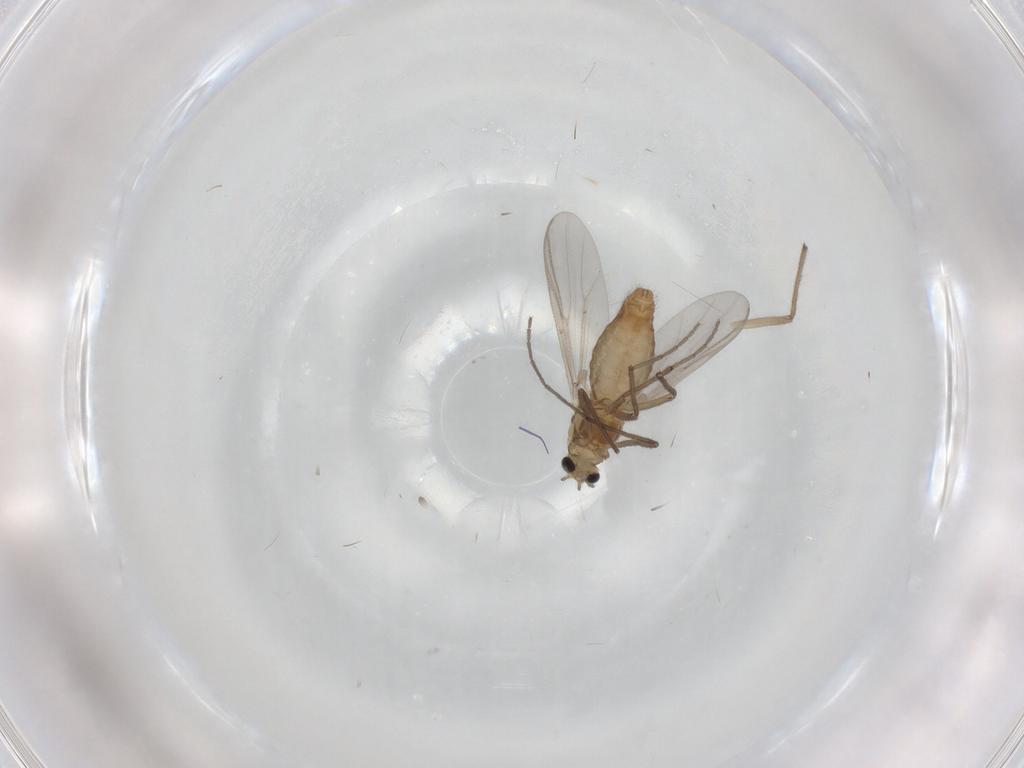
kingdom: Animalia
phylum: Arthropoda
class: Insecta
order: Diptera
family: Chironomidae
